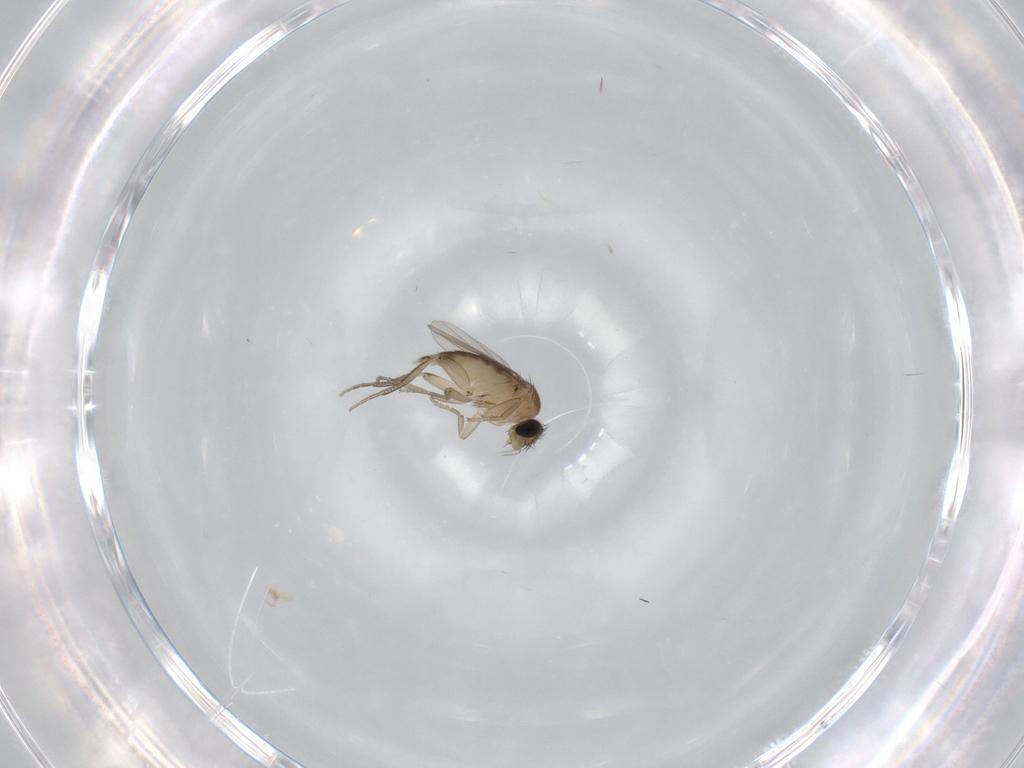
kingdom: Animalia
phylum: Arthropoda
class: Insecta
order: Diptera
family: Phoridae
